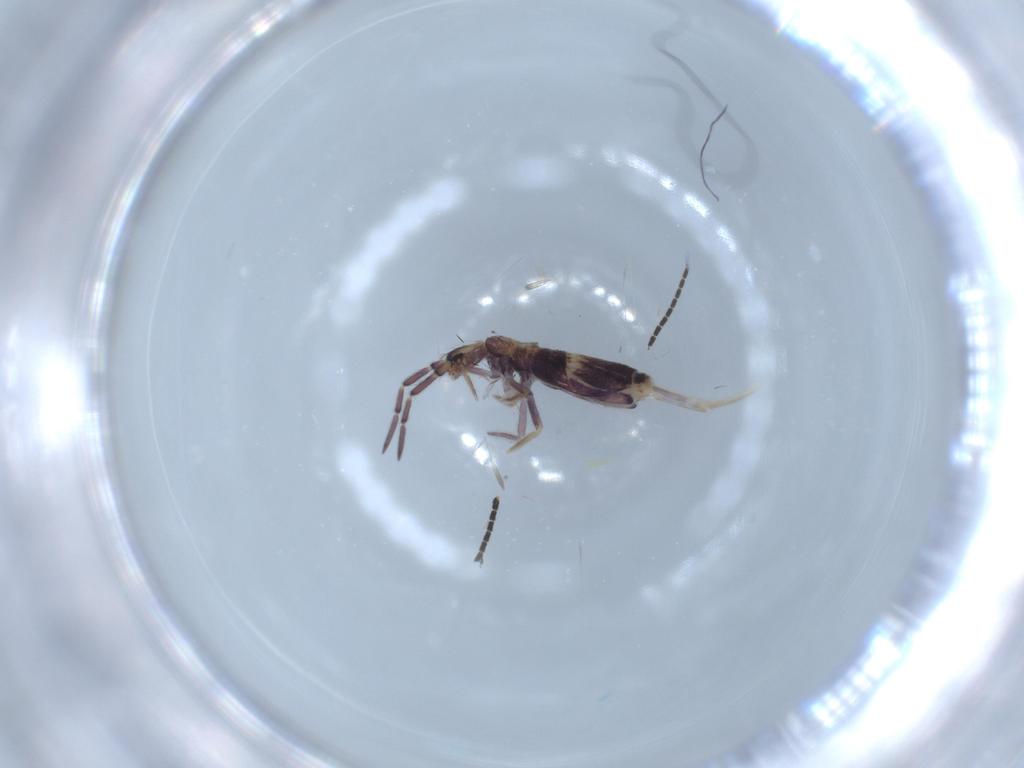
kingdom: Animalia
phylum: Arthropoda
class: Collembola
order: Entomobryomorpha
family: Entomobryidae
